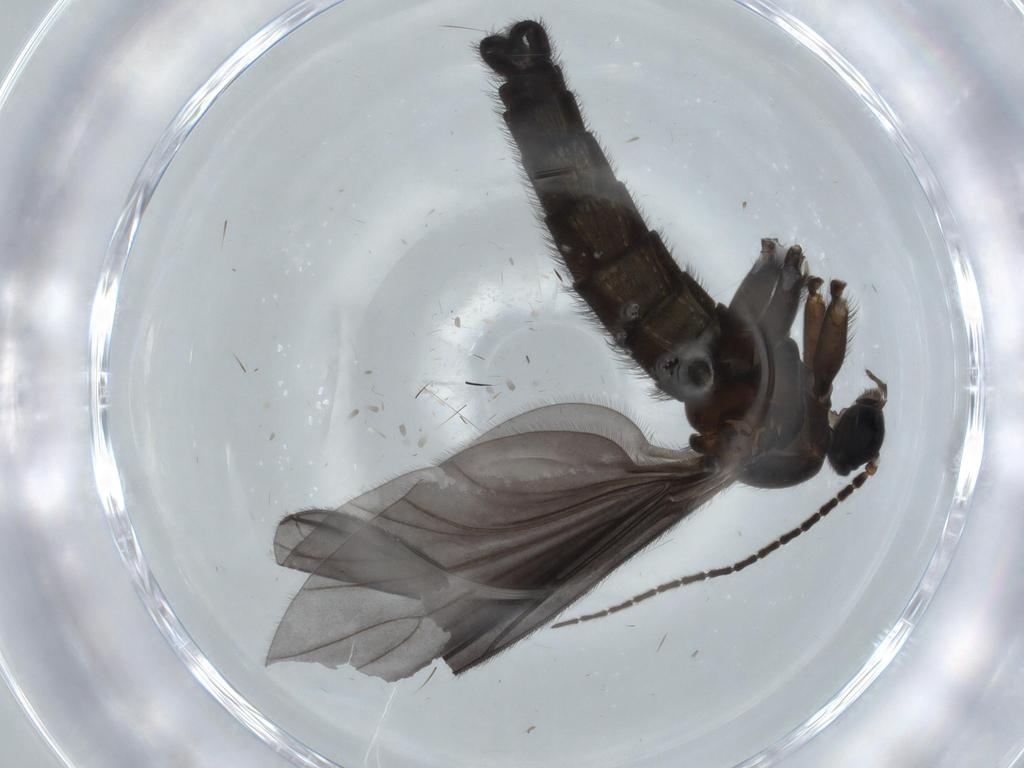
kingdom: Animalia
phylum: Arthropoda
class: Insecta
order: Diptera
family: Sciaridae
